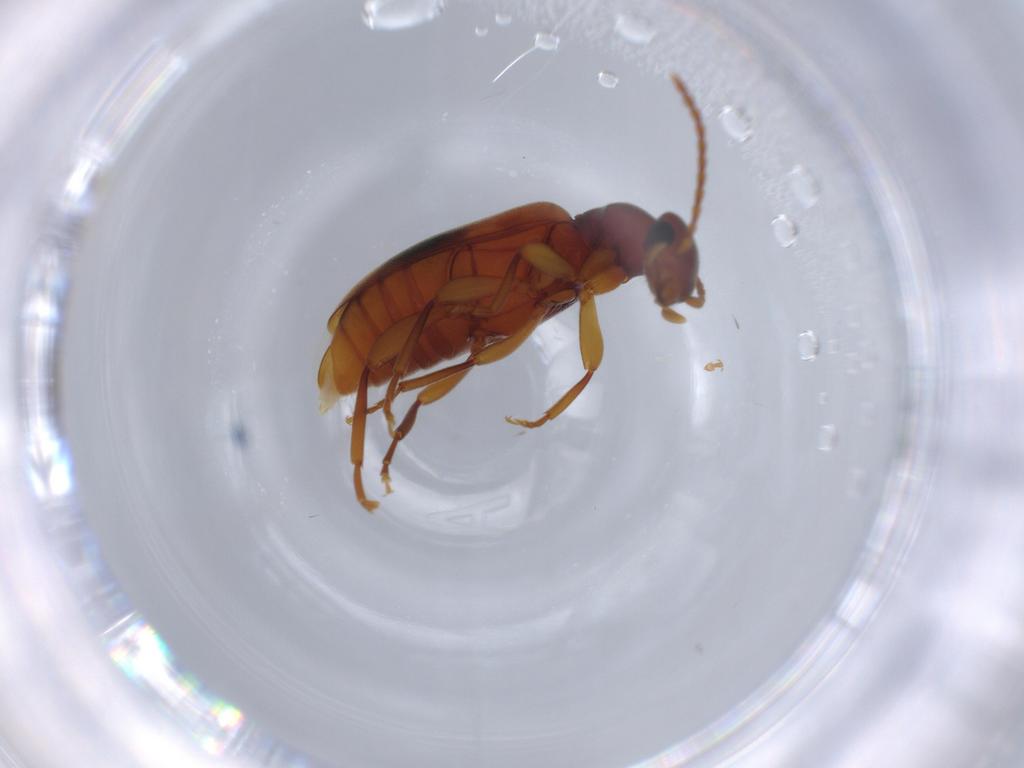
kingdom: Animalia
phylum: Arthropoda
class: Insecta
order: Coleoptera
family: Anthicidae
